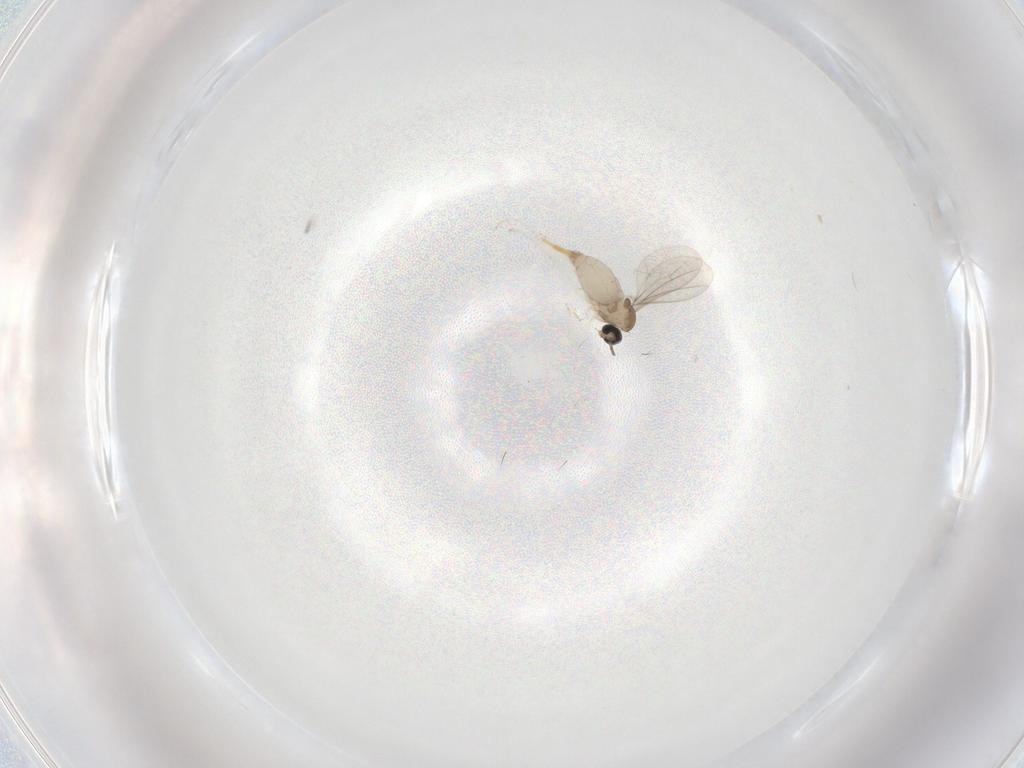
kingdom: Animalia
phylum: Arthropoda
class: Insecta
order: Diptera
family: Cecidomyiidae
